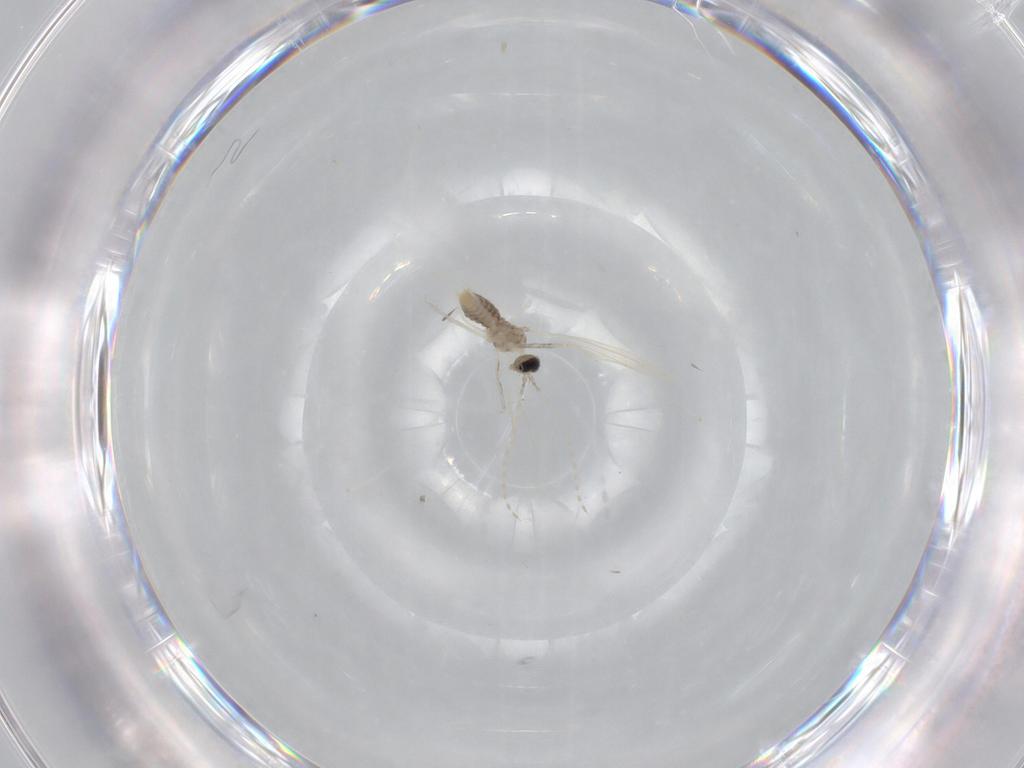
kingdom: Animalia
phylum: Arthropoda
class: Insecta
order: Diptera
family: Cecidomyiidae
